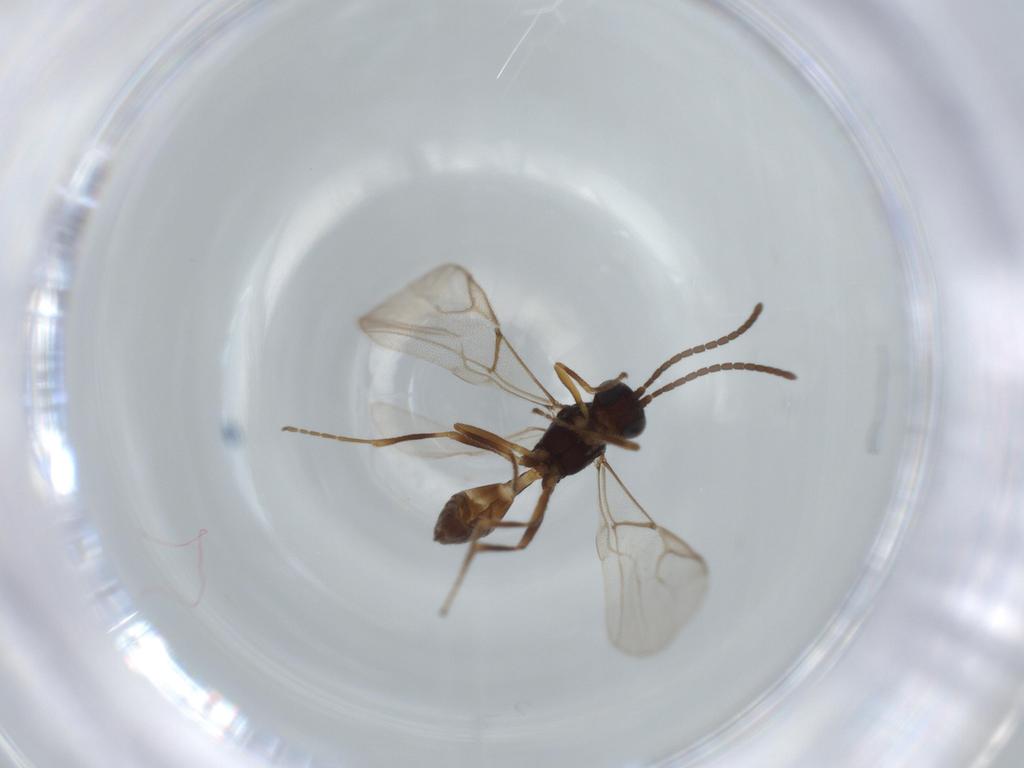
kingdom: Animalia
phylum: Arthropoda
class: Insecta
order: Hymenoptera
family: Braconidae
